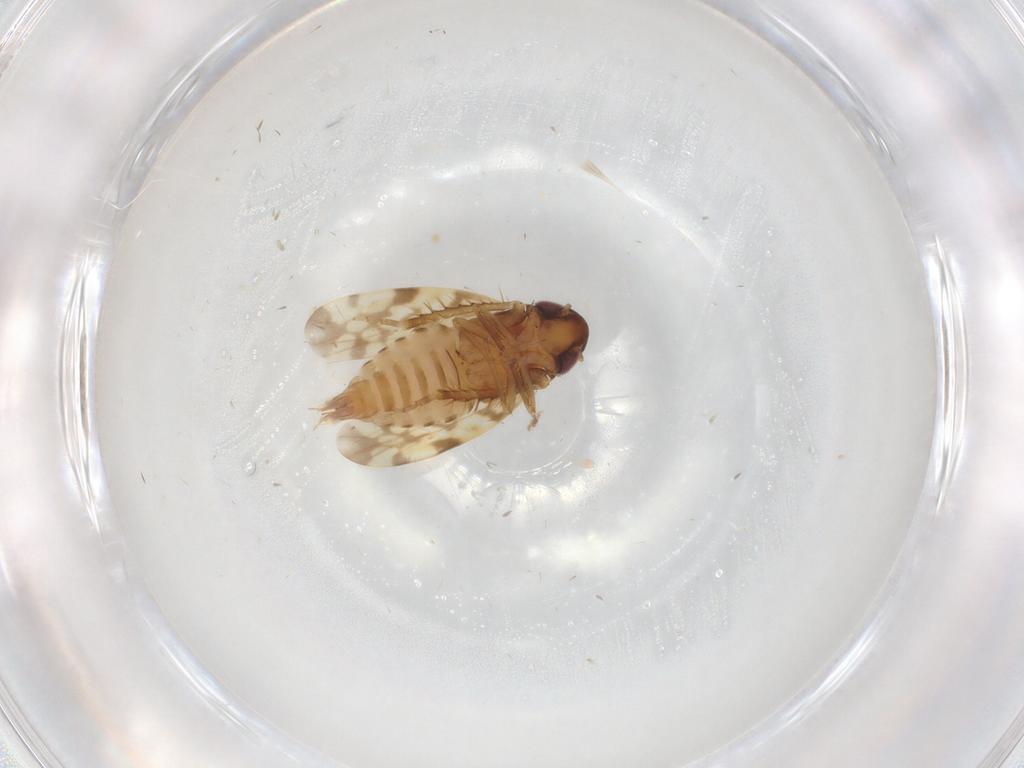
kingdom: Animalia
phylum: Arthropoda
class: Insecta
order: Hemiptera
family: Cicadellidae
